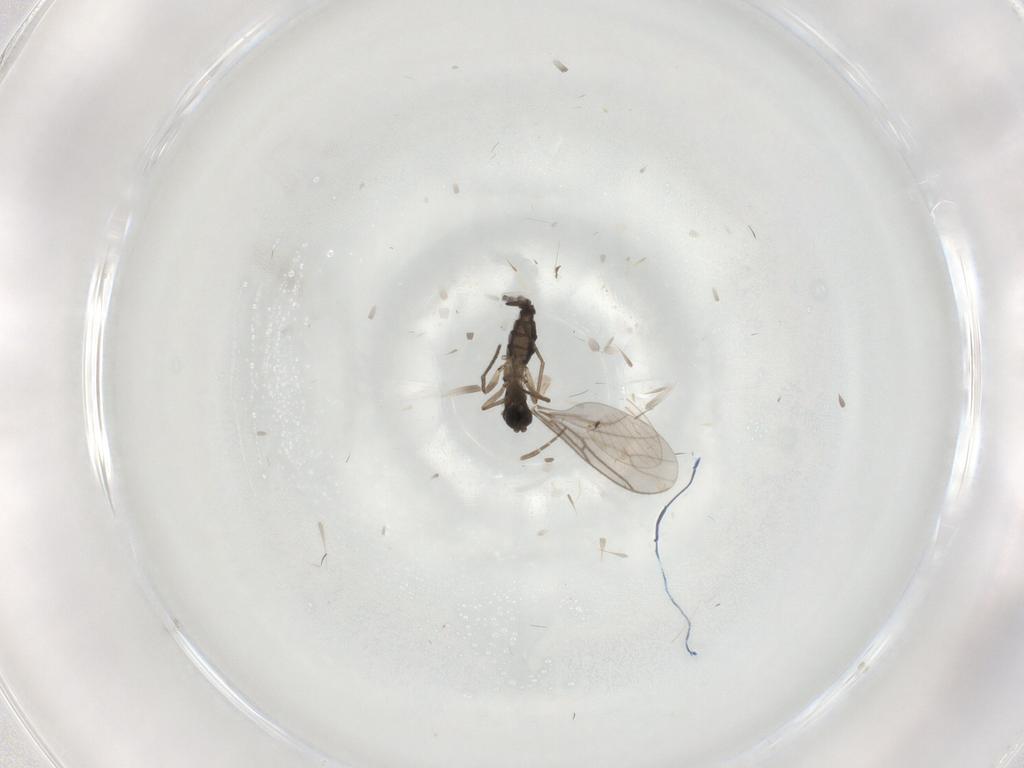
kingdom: Animalia
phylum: Arthropoda
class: Insecta
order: Diptera
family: Sciaridae
